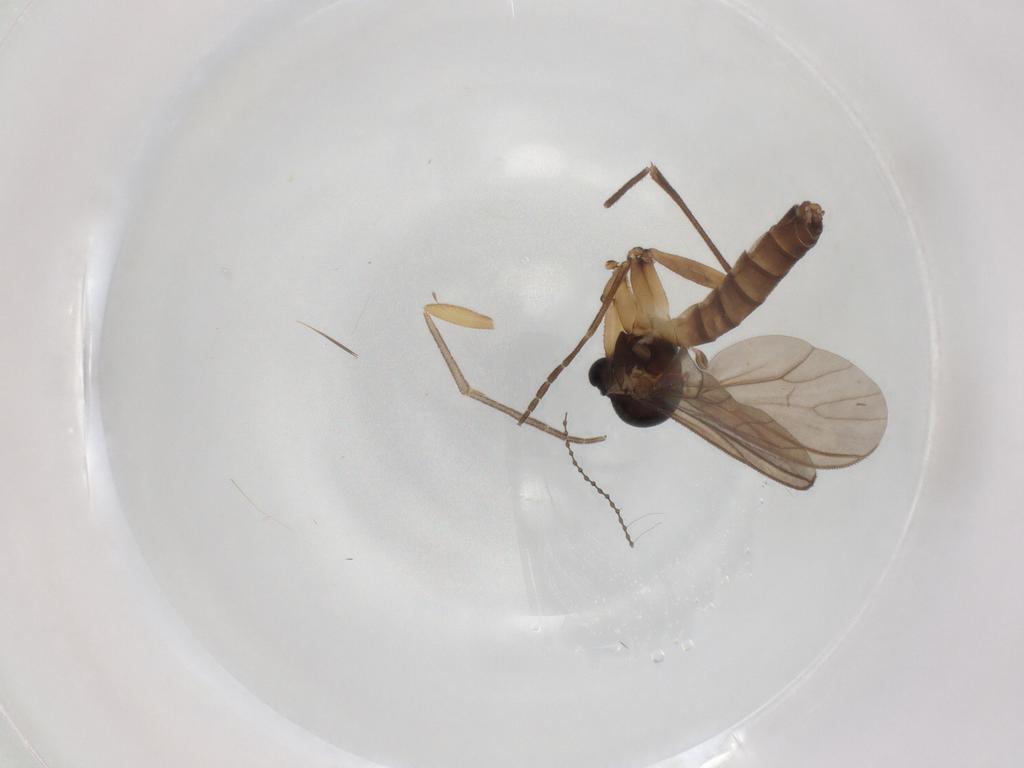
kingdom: Animalia
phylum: Arthropoda
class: Insecta
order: Diptera
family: Mycetophilidae
